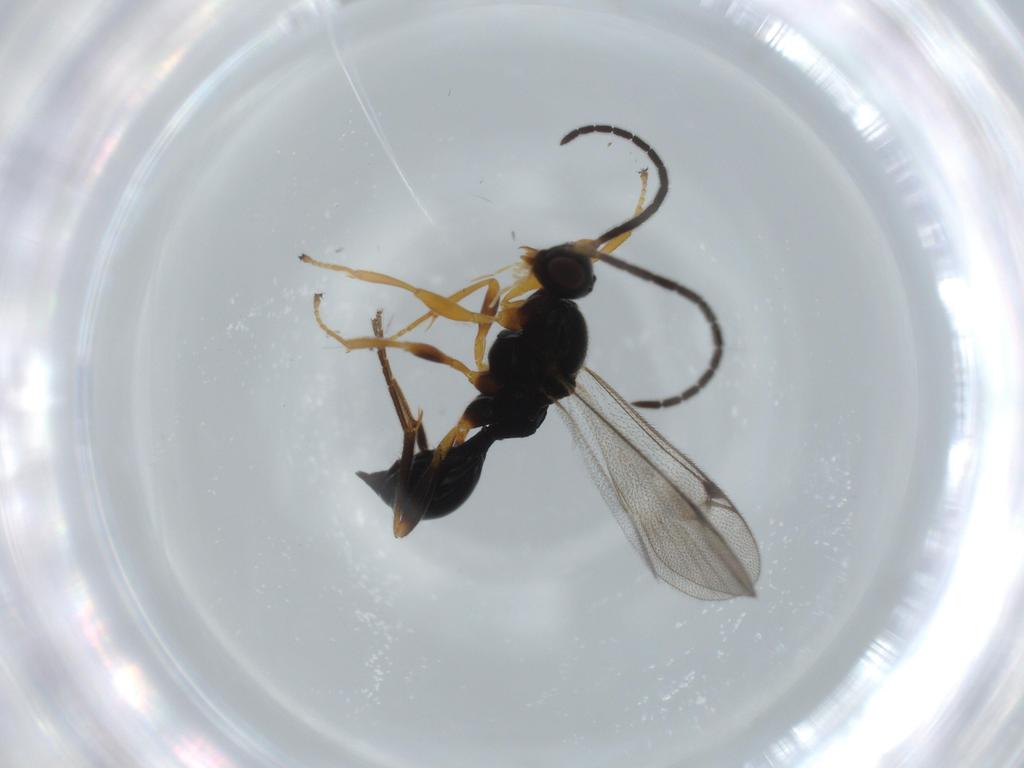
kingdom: Animalia
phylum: Arthropoda
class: Insecta
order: Hymenoptera
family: Proctotrupidae
